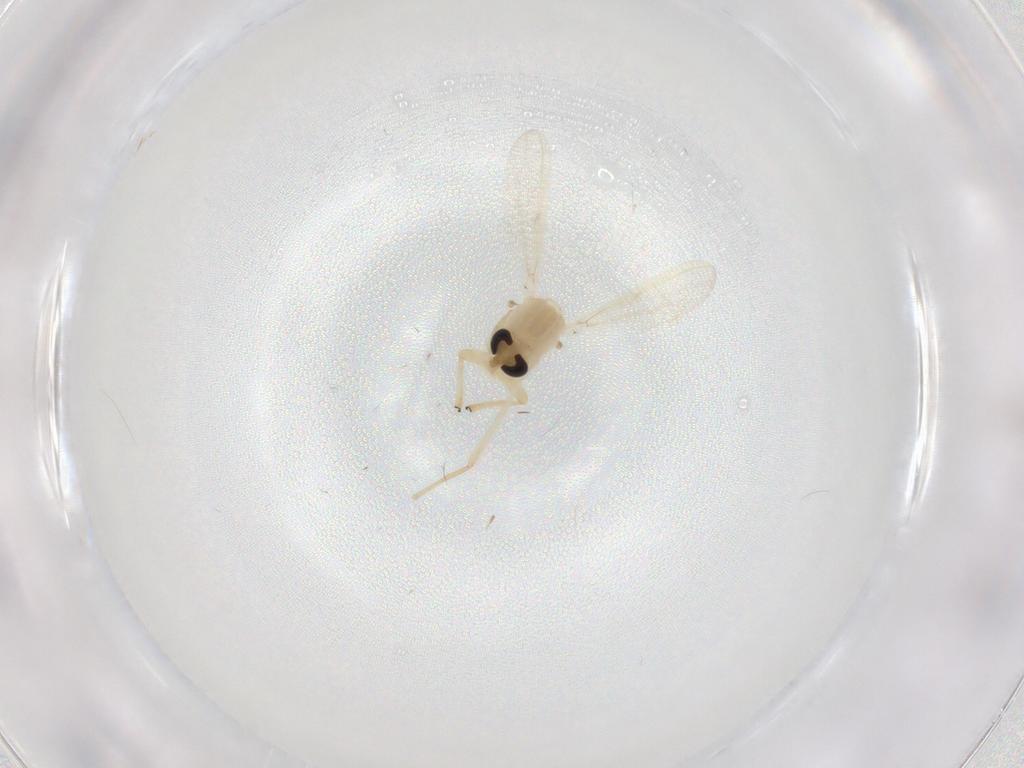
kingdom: Animalia
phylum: Arthropoda
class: Insecta
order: Diptera
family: Chironomidae
